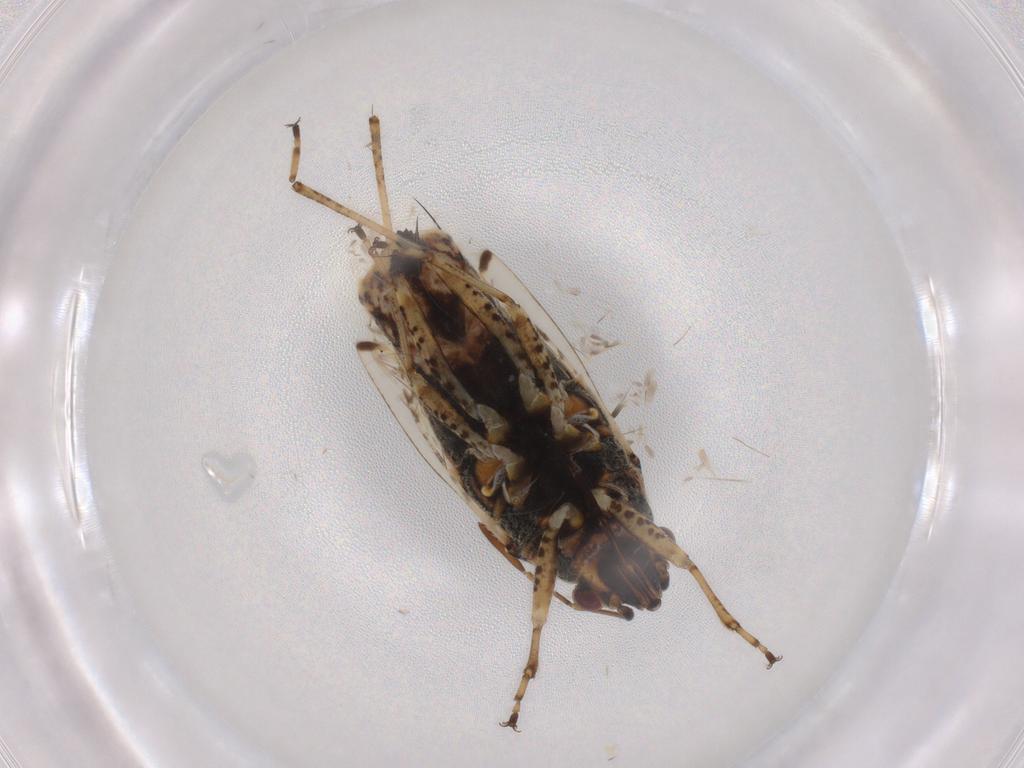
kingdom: Animalia
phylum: Arthropoda
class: Insecta
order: Hemiptera
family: Lygaeidae
